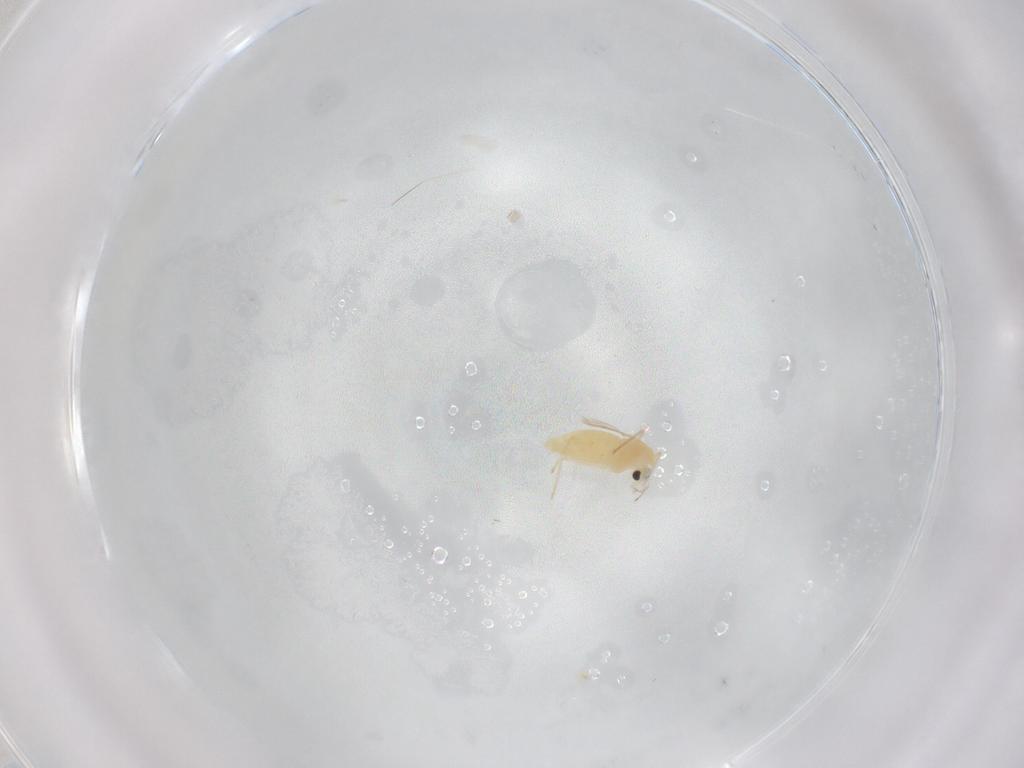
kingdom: Animalia
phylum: Arthropoda
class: Insecta
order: Diptera
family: Chironomidae
